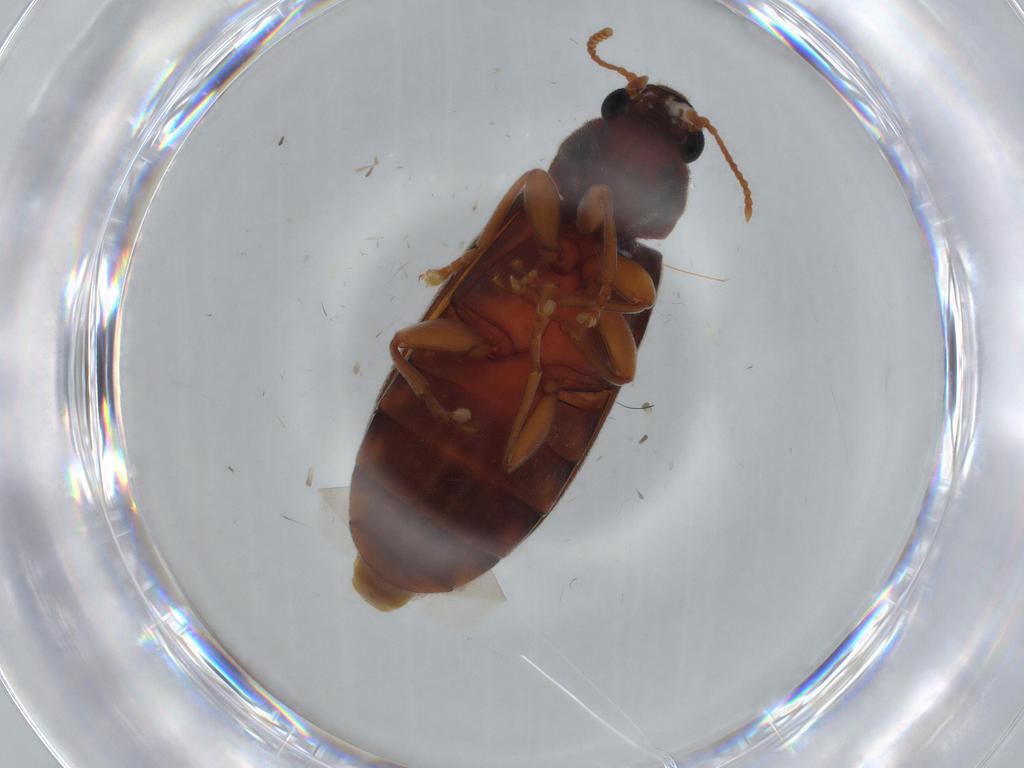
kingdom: Animalia
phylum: Arthropoda
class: Insecta
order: Coleoptera
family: Mycteridae
